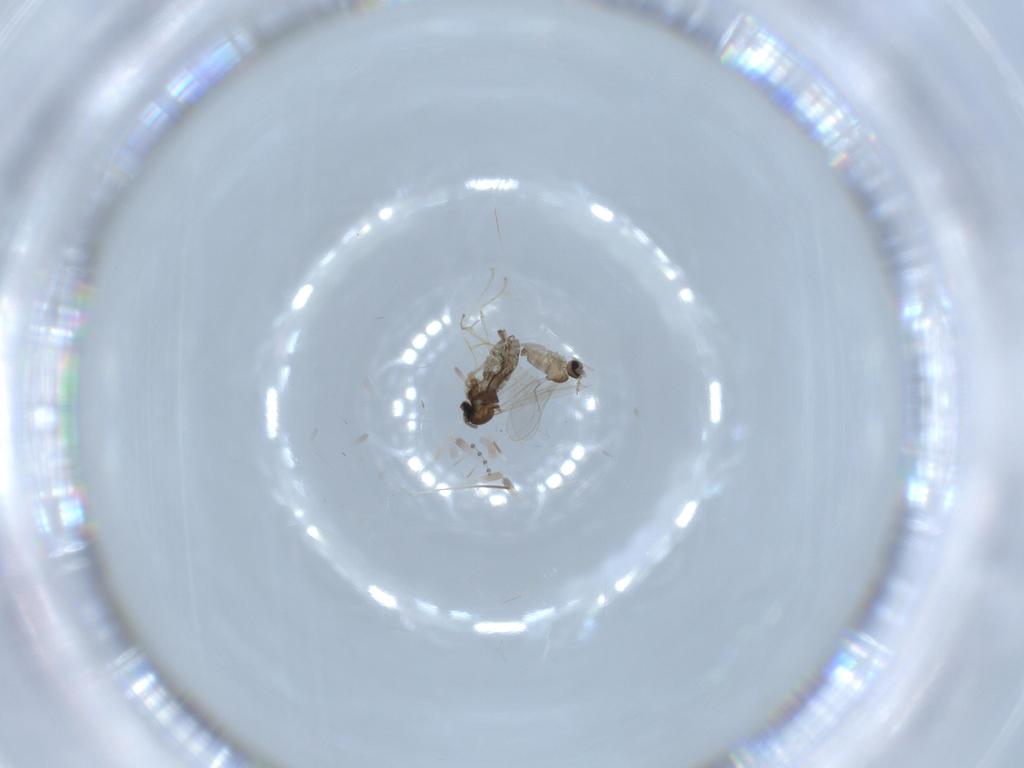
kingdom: Animalia
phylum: Arthropoda
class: Insecta
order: Diptera
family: Cecidomyiidae
